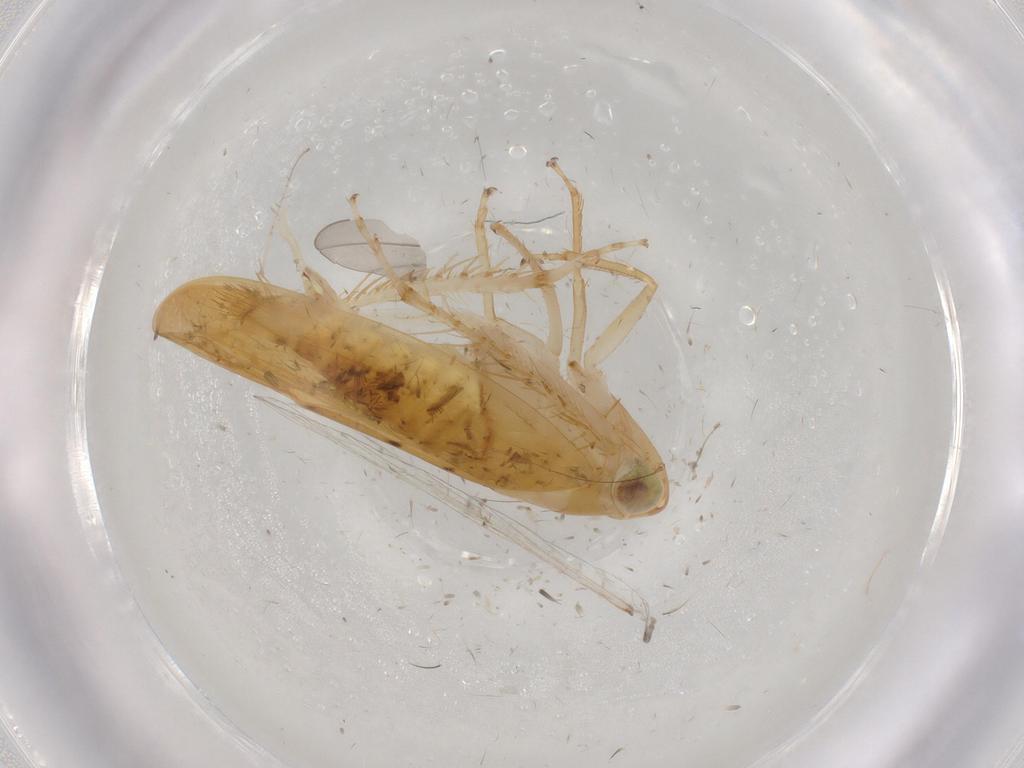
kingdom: Animalia
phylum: Arthropoda
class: Insecta
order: Hemiptera
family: Cicadellidae
